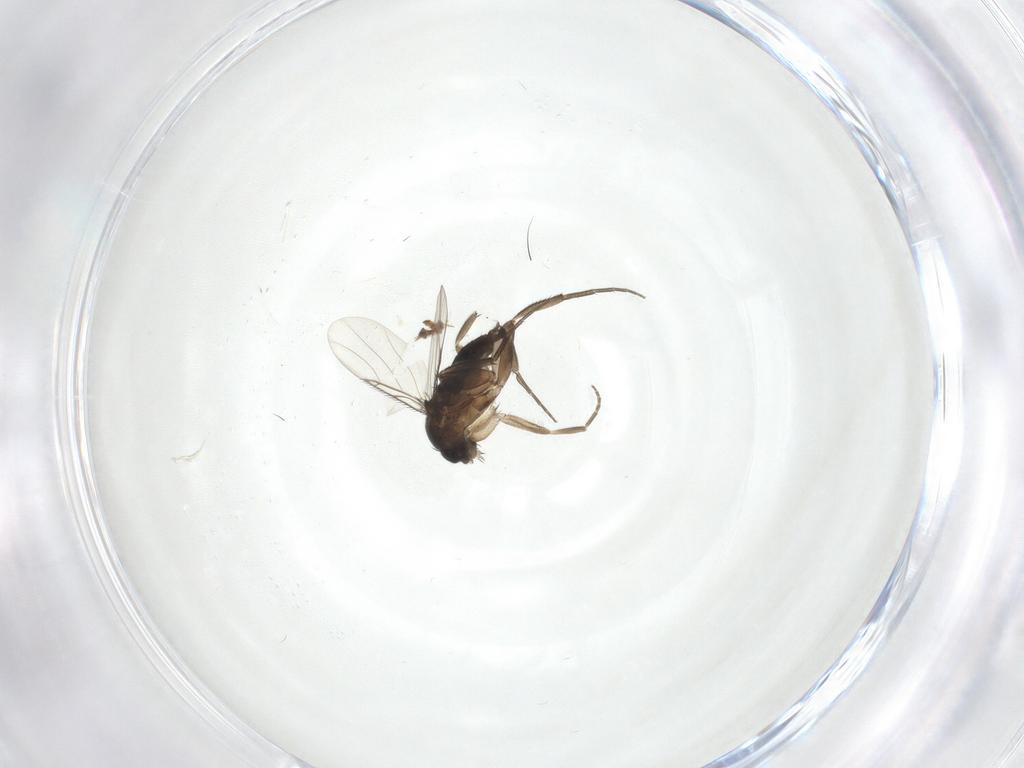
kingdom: Animalia
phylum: Arthropoda
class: Insecta
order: Diptera
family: Phoridae
